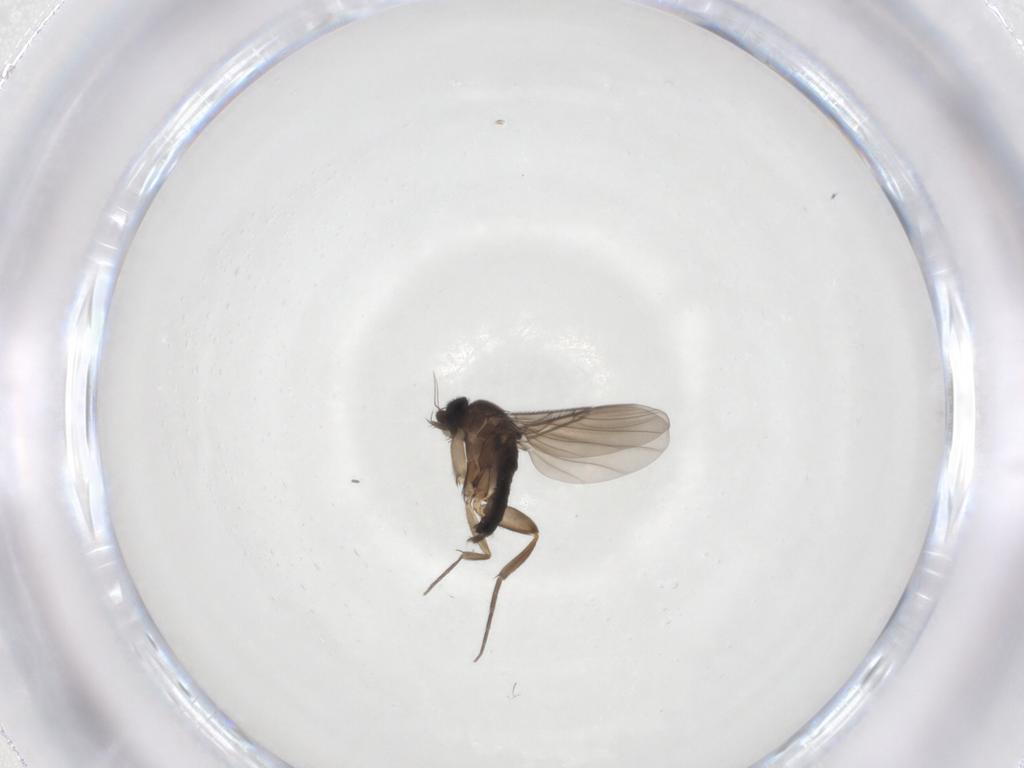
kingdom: Animalia
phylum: Arthropoda
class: Insecta
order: Diptera
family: Phoridae
